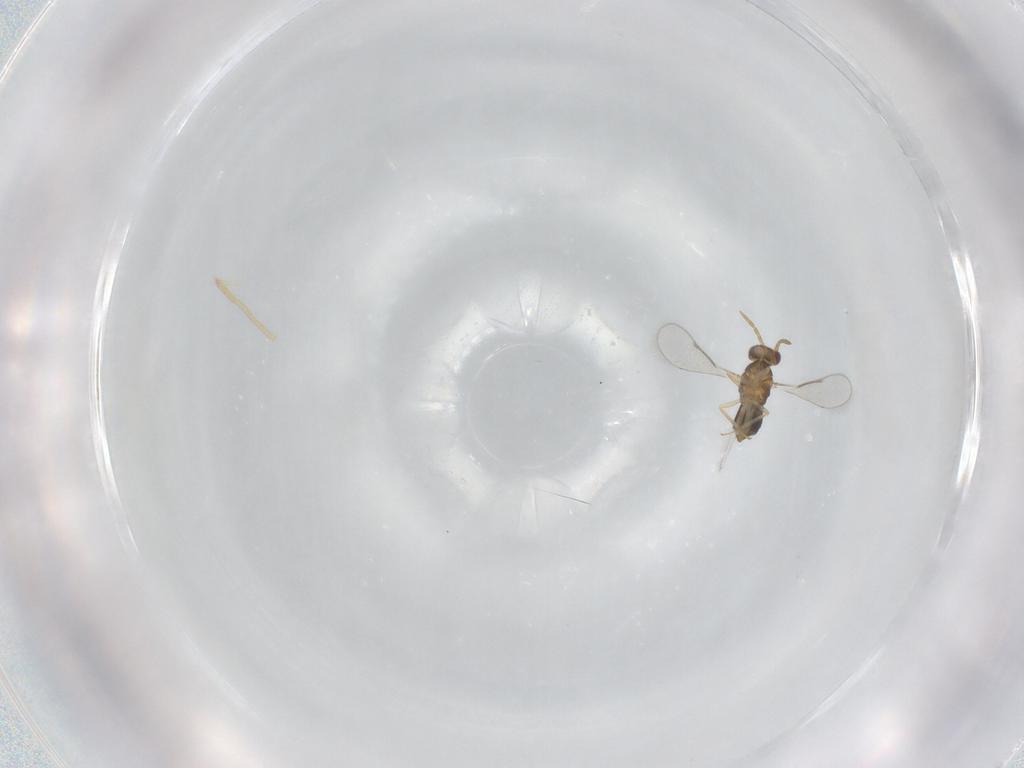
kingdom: Animalia
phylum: Arthropoda
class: Insecta
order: Hymenoptera
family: Aphelinidae
